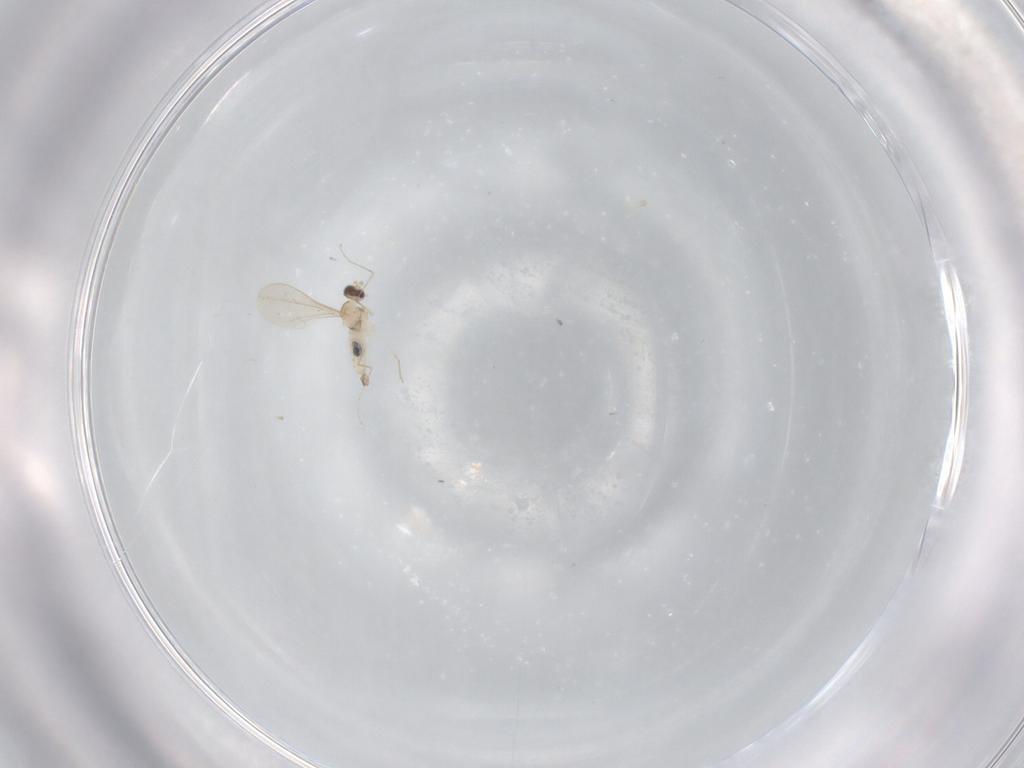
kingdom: Animalia
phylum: Arthropoda
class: Insecta
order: Diptera
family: Cecidomyiidae
